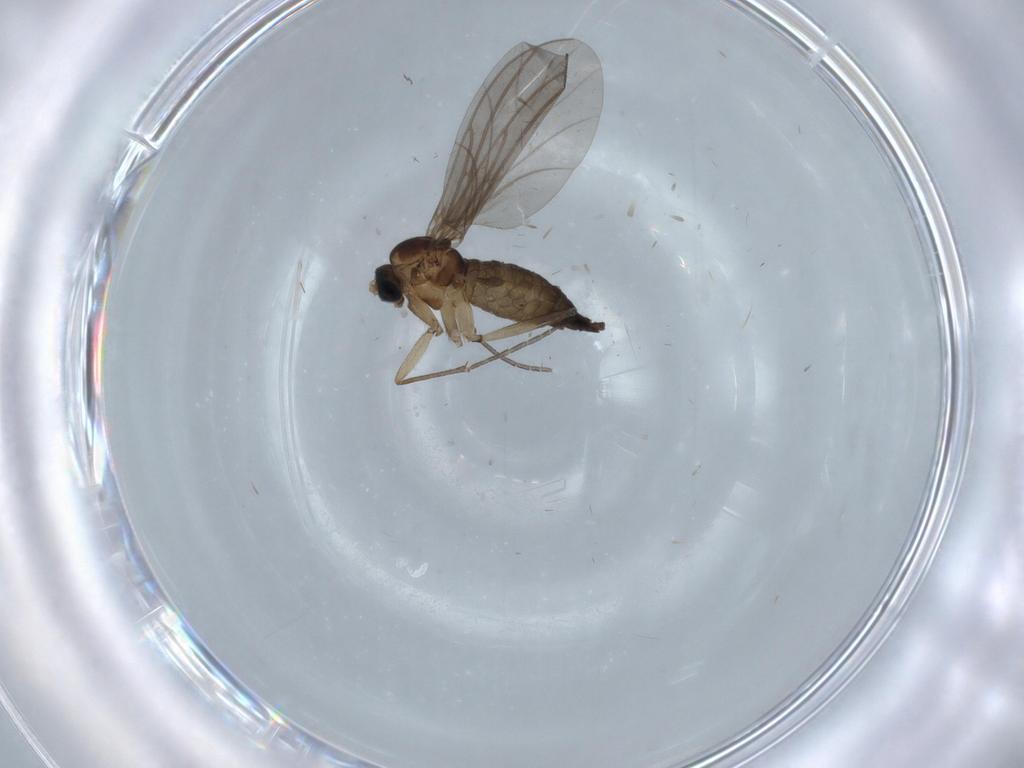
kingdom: Animalia
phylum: Arthropoda
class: Insecta
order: Diptera
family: Psychodidae
